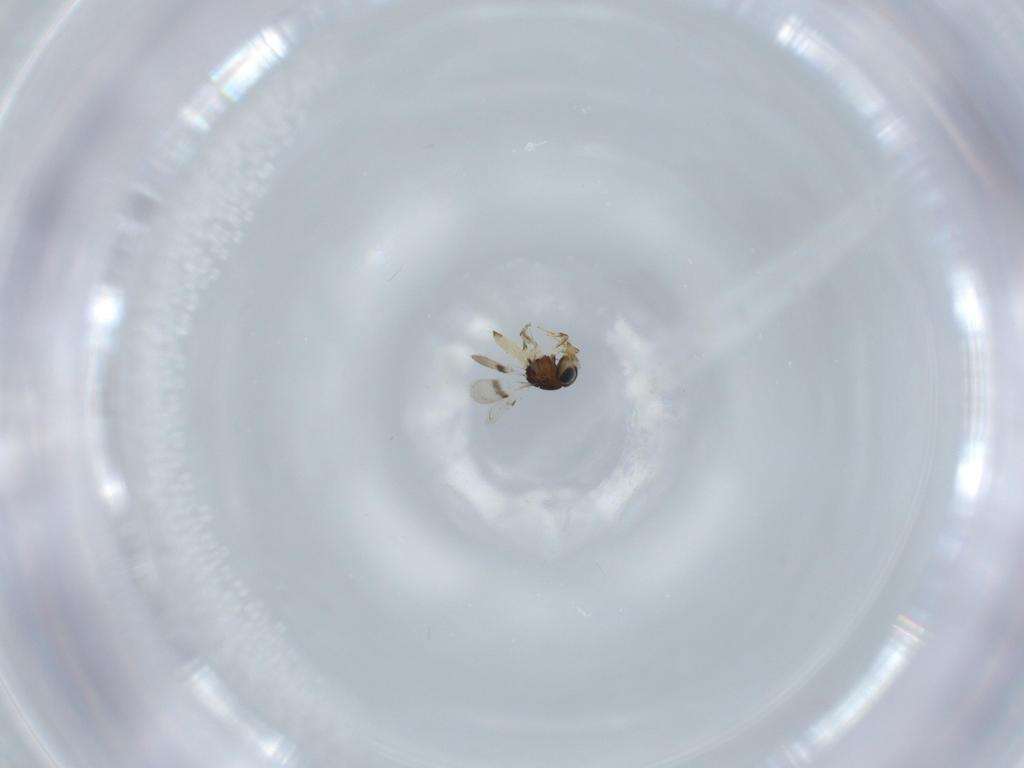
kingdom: Animalia
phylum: Arthropoda
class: Insecta
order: Hymenoptera
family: Scelionidae
